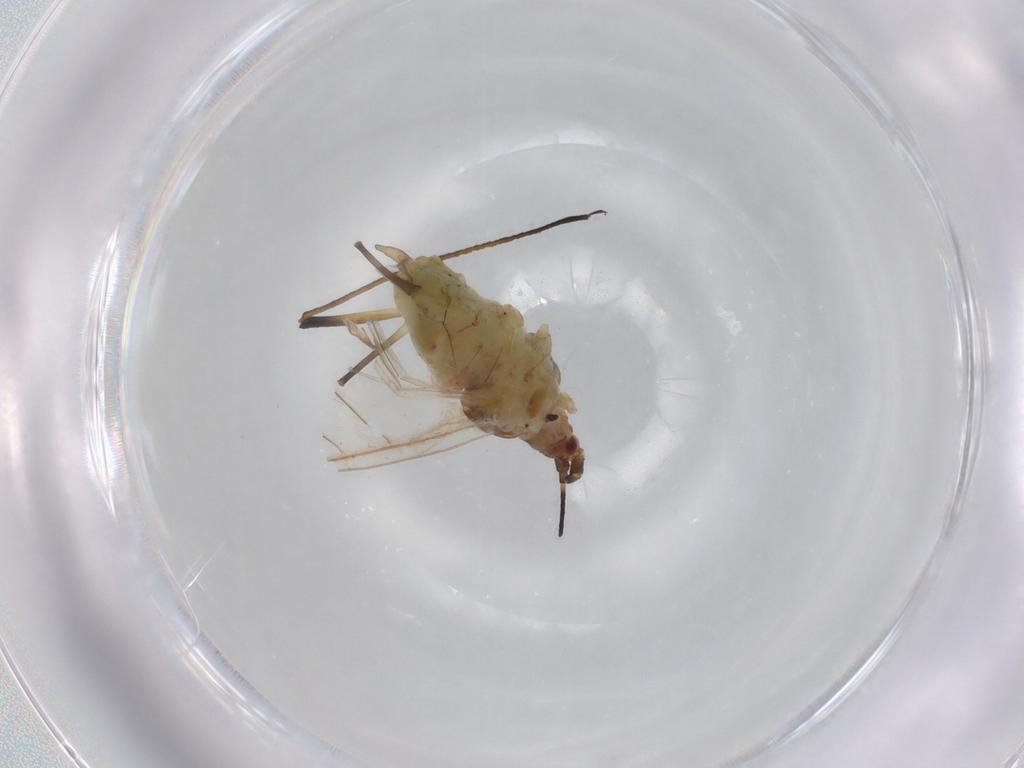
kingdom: Animalia
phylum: Arthropoda
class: Insecta
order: Hemiptera
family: Aphididae
